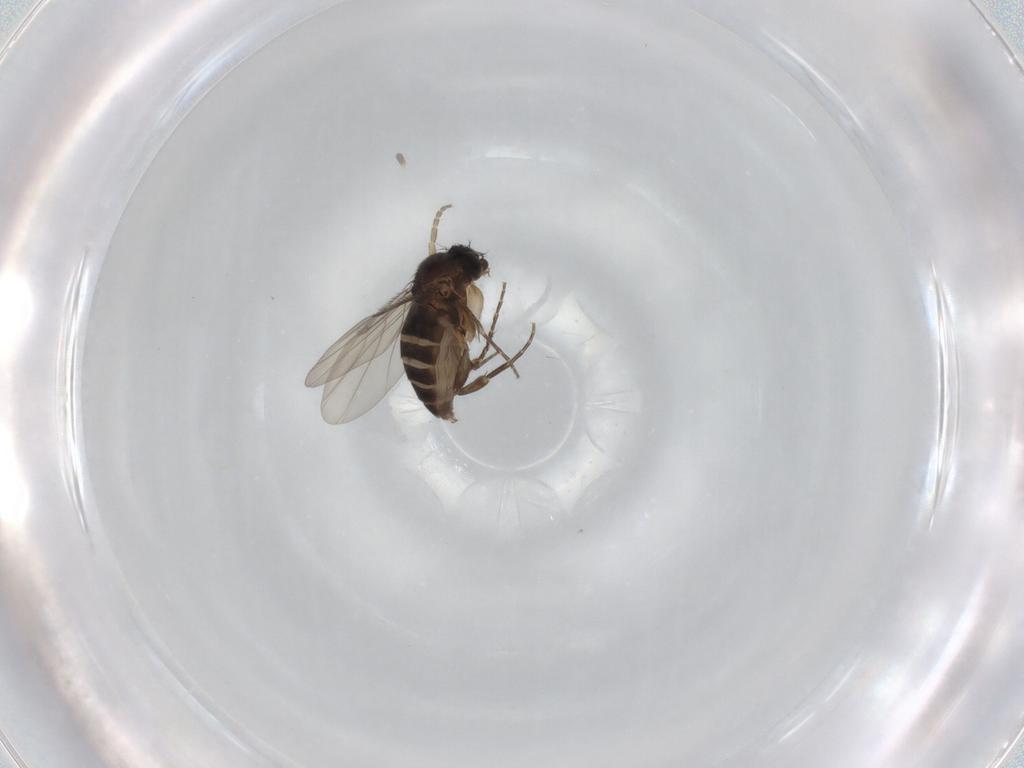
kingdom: Animalia
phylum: Arthropoda
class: Insecta
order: Diptera
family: Phoridae
